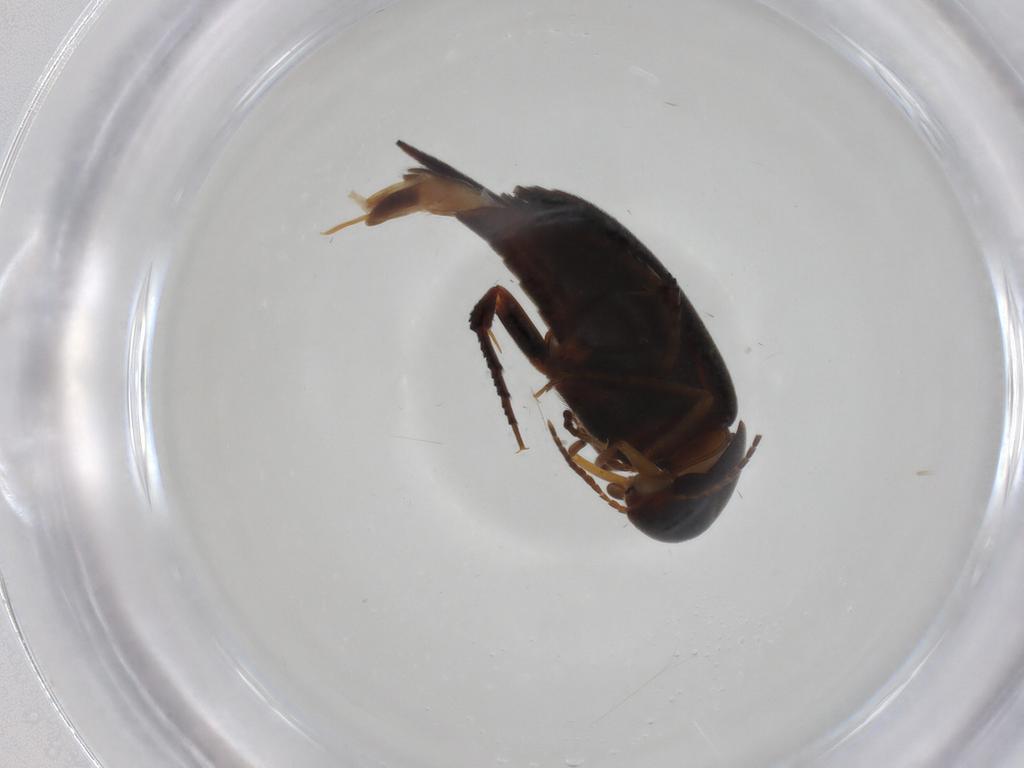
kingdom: Animalia
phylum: Arthropoda
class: Insecta
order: Coleoptera
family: Mordellidae
